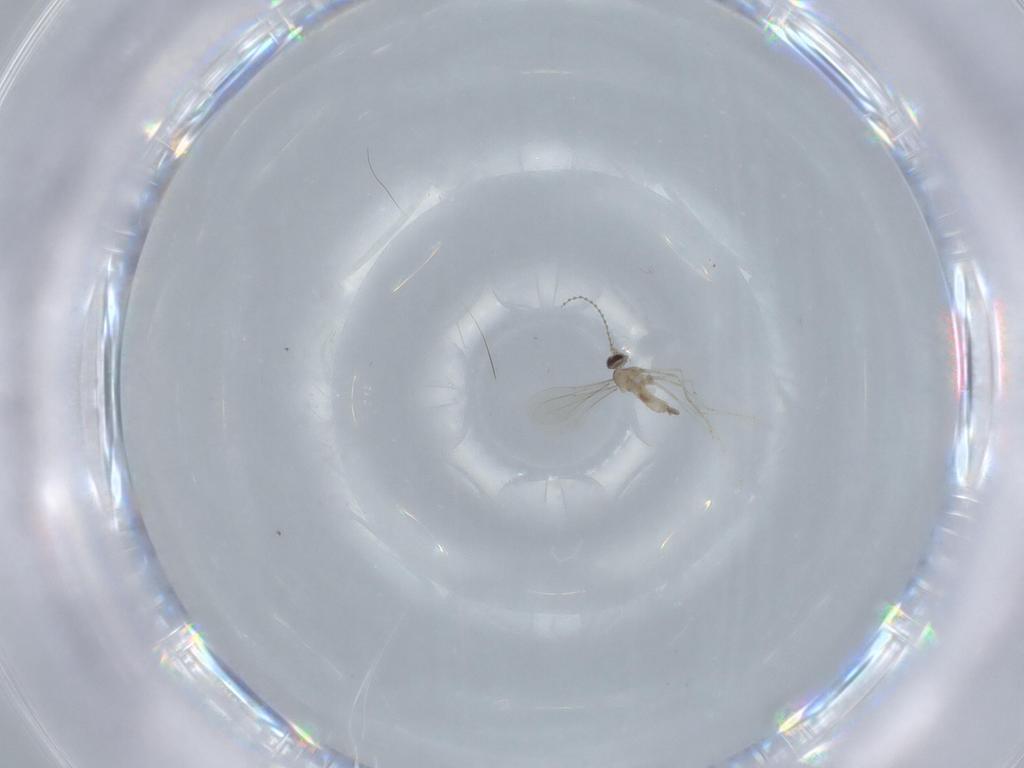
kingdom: Animalia
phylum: Arthropoda
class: Insecta
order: Diptera
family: Cecidomyiidae
